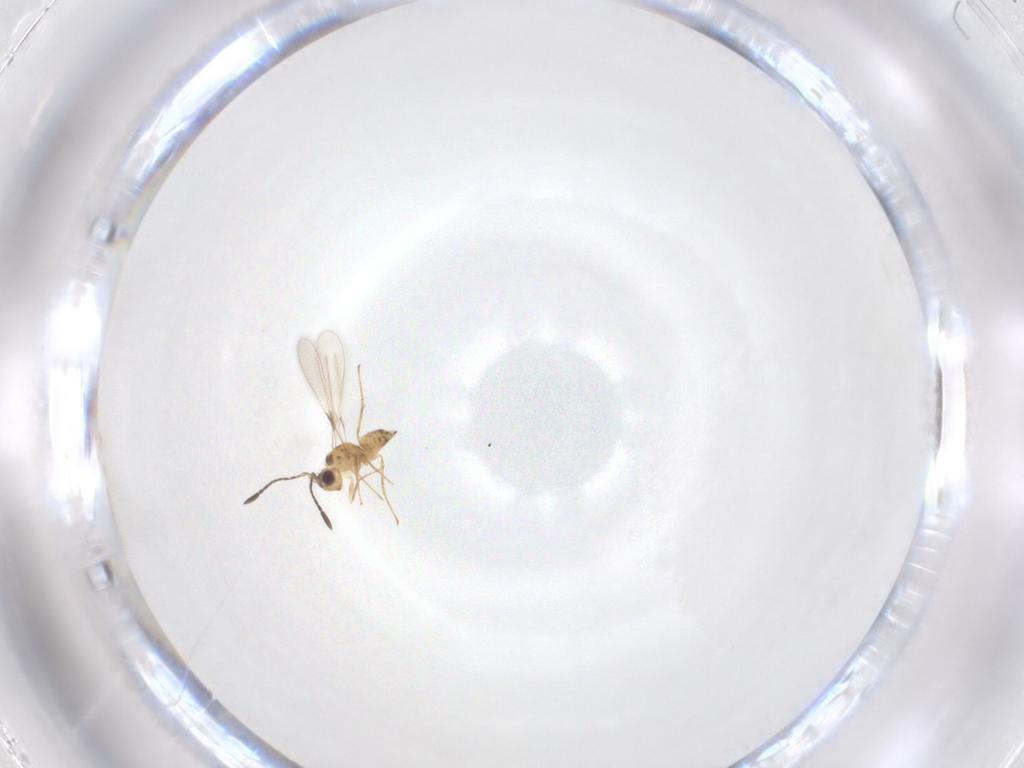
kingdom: Animalia
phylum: Arthropoda
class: Insecta
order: Hymenoptera
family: Mymaridae
